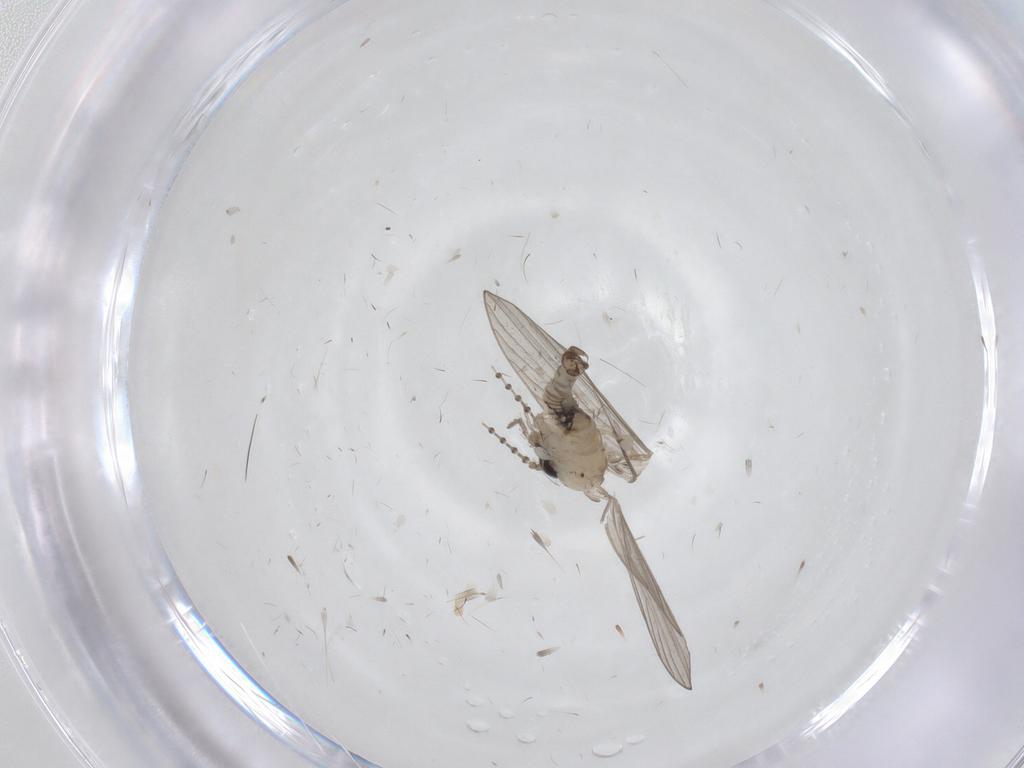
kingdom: Animalia
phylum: Arthropoda
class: Insecta
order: Diptera
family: Psychodidae
